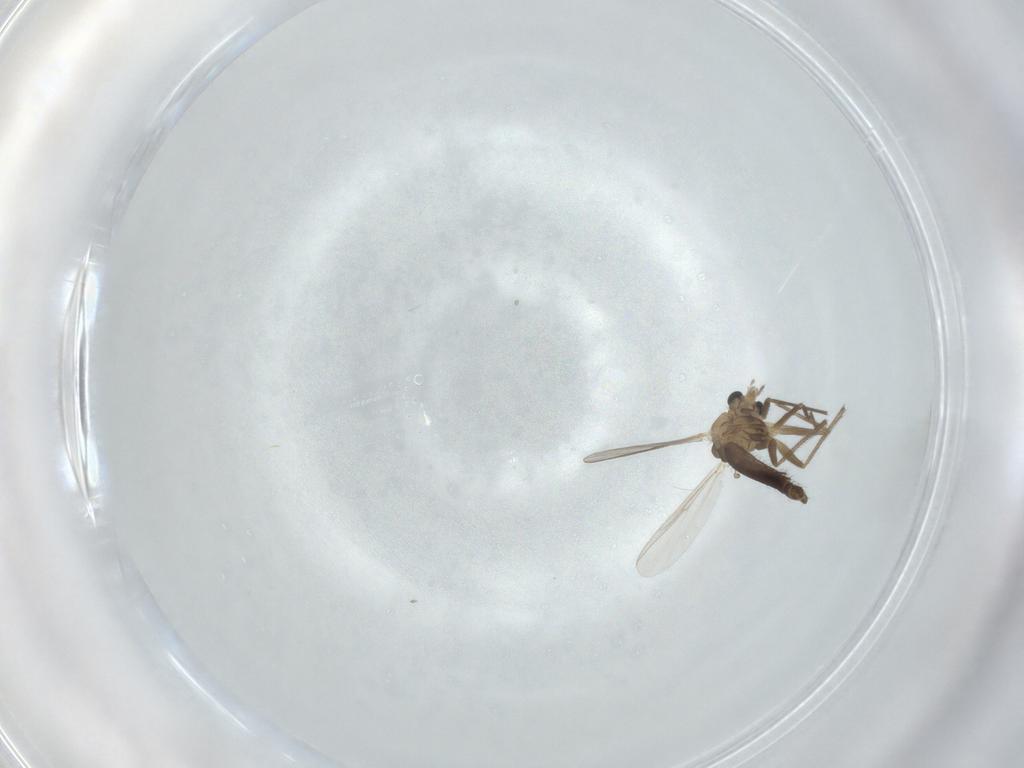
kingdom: Animalia
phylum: Arthropoda
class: Insecta
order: Diptera
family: Chironomidae
